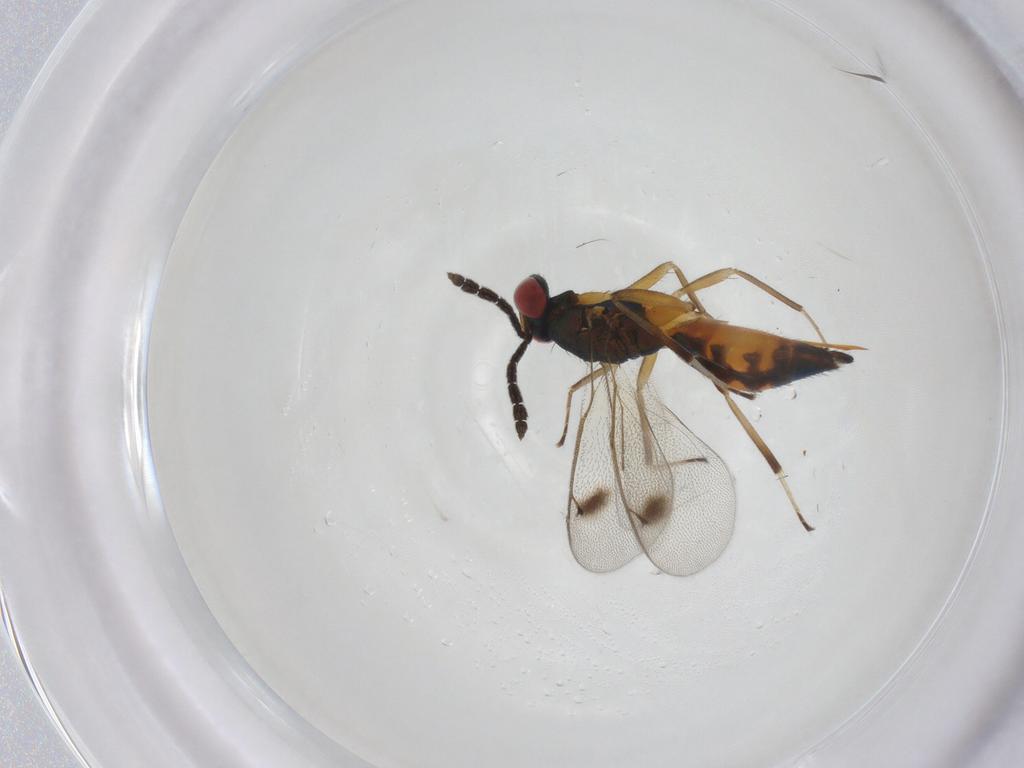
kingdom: Animalia
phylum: Arthropoda
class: Insecta
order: Hymenoptera
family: Eulophidae
